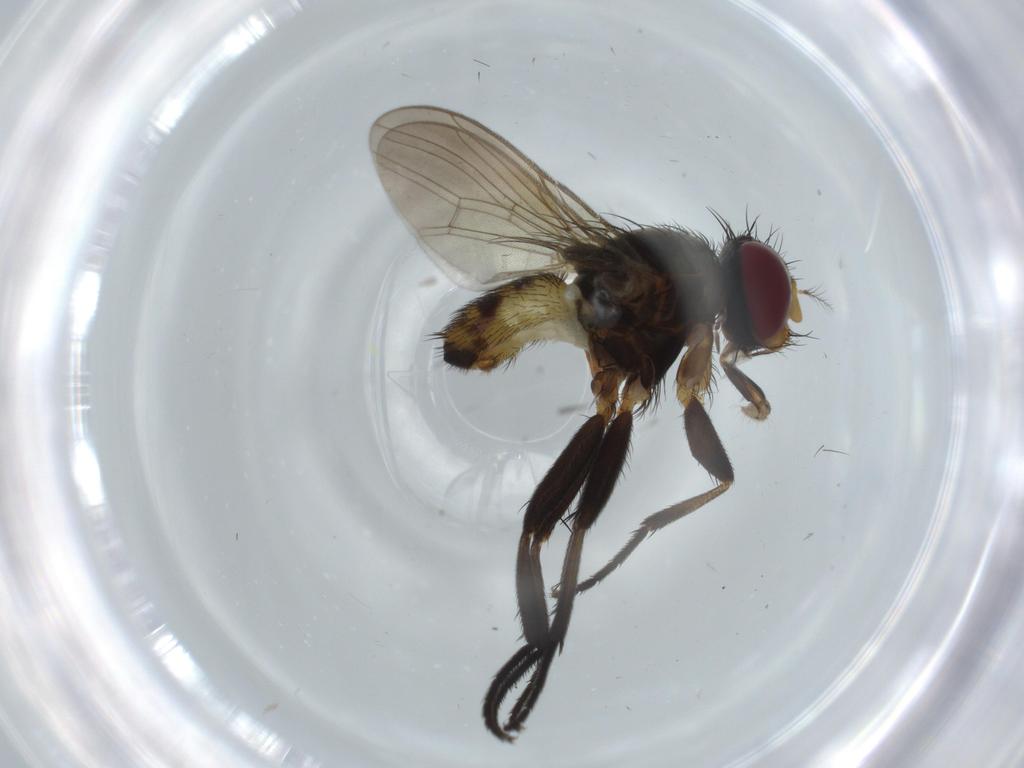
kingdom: Animalia
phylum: Arthropoda
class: Insecta
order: Diptera
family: Anthomyiidae
